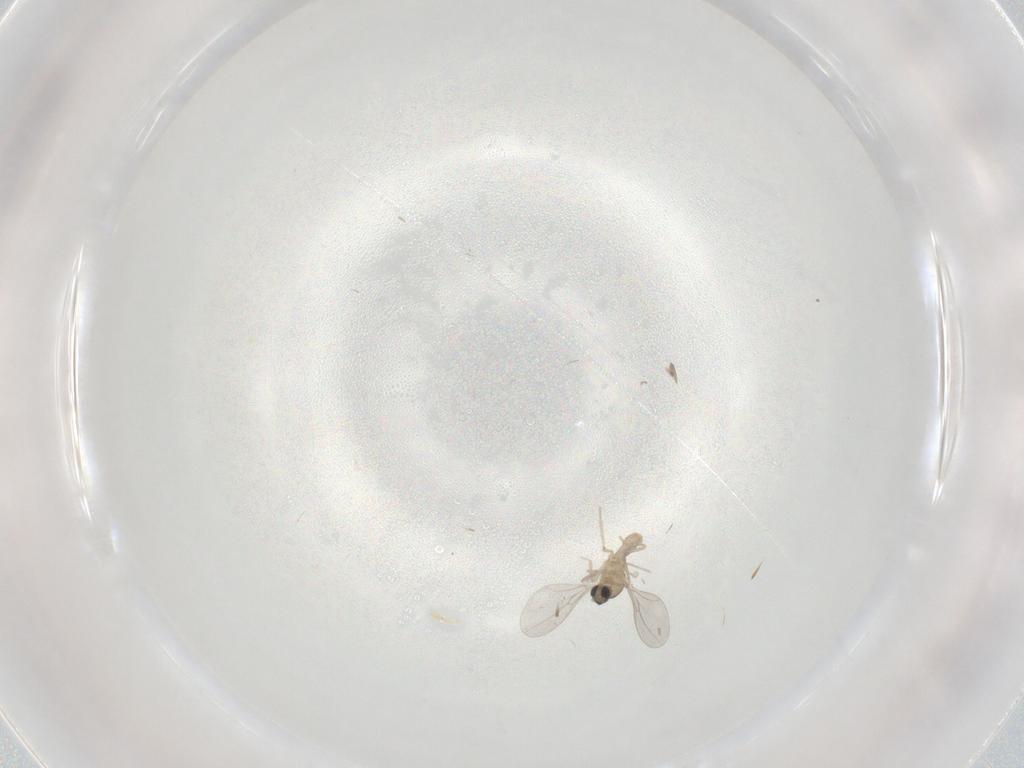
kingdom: Animalia
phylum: Arthropoda
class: Insecta
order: Diptera
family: Cecidomyiidae
